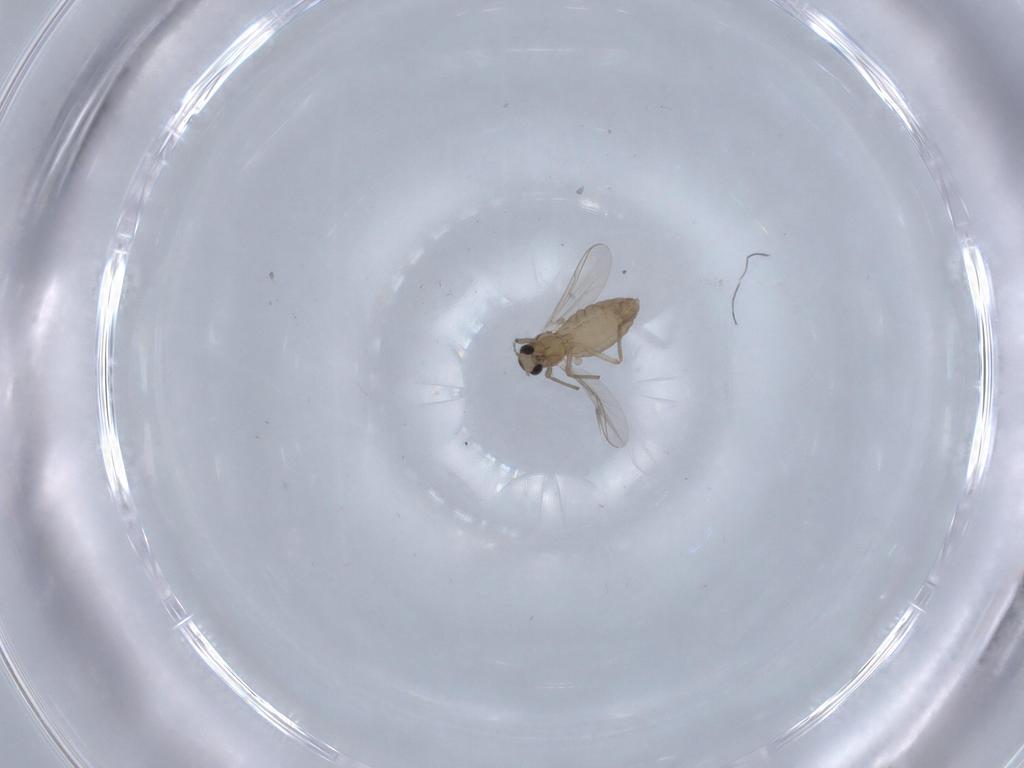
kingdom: Animalia
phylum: Arthropoda
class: Insecta
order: Diptera
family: Chironomidae
